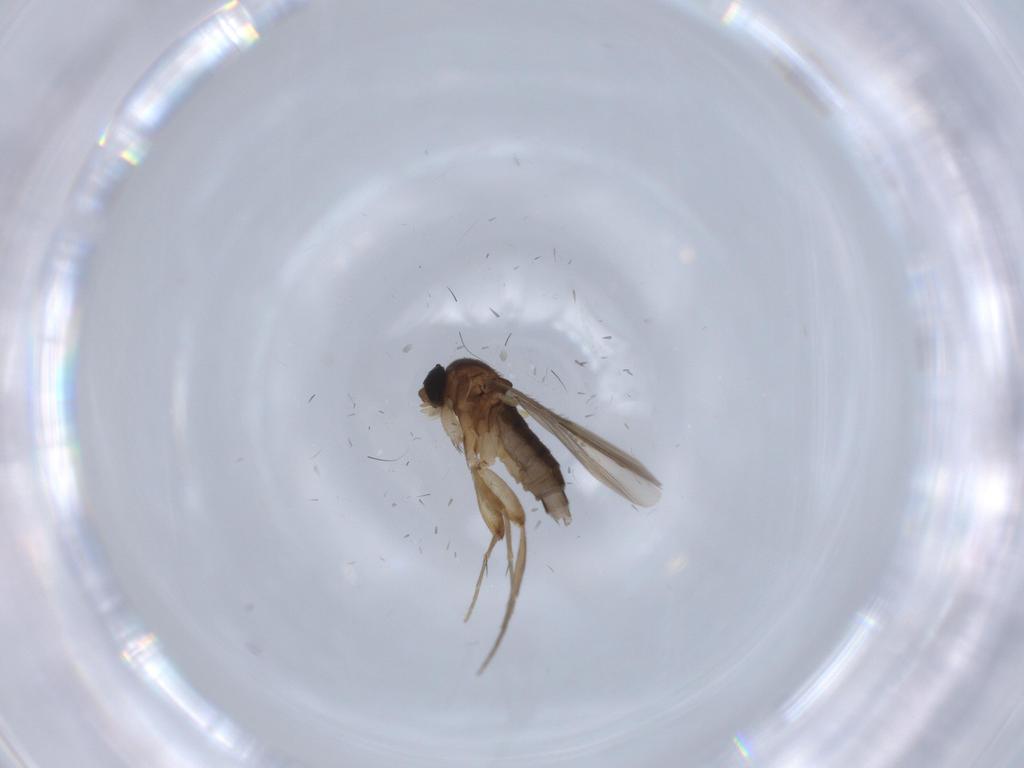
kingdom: Animalia
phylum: Arthropoda
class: Insecta
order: Diptera
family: Phoridae
